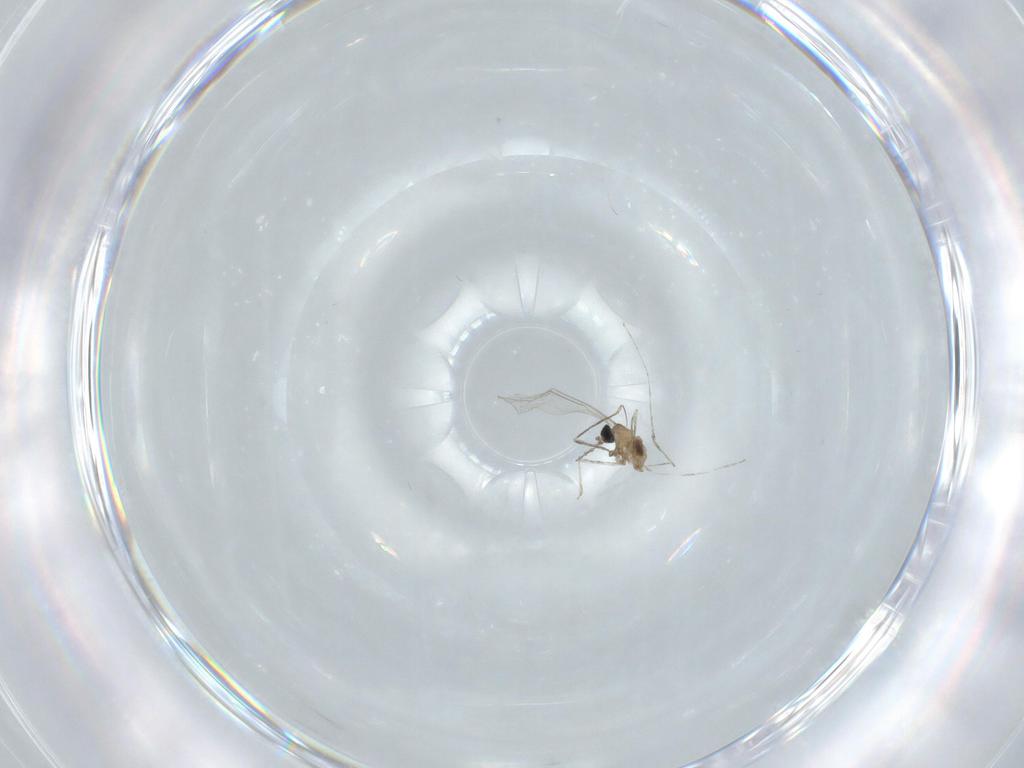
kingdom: Animalia
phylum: Arthropoda
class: Insecta
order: Diptera
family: Cecidomyiidae
